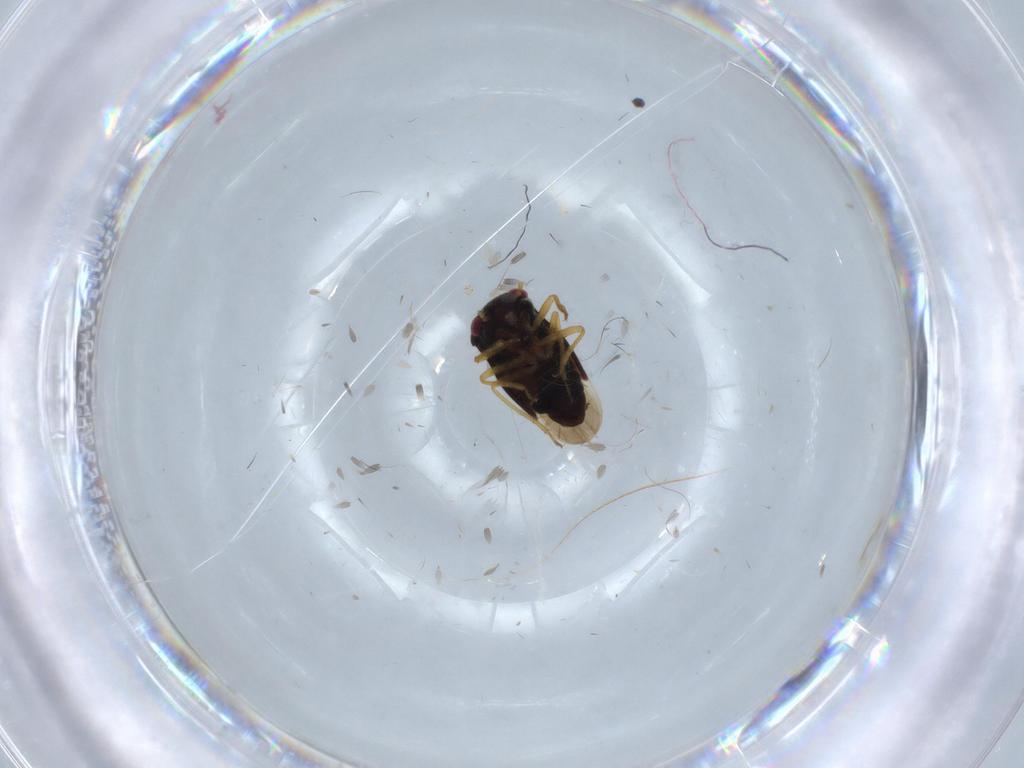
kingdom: Animalia
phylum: Arthropoda
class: Insecta
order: Hemiptera
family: Schizopteridae
